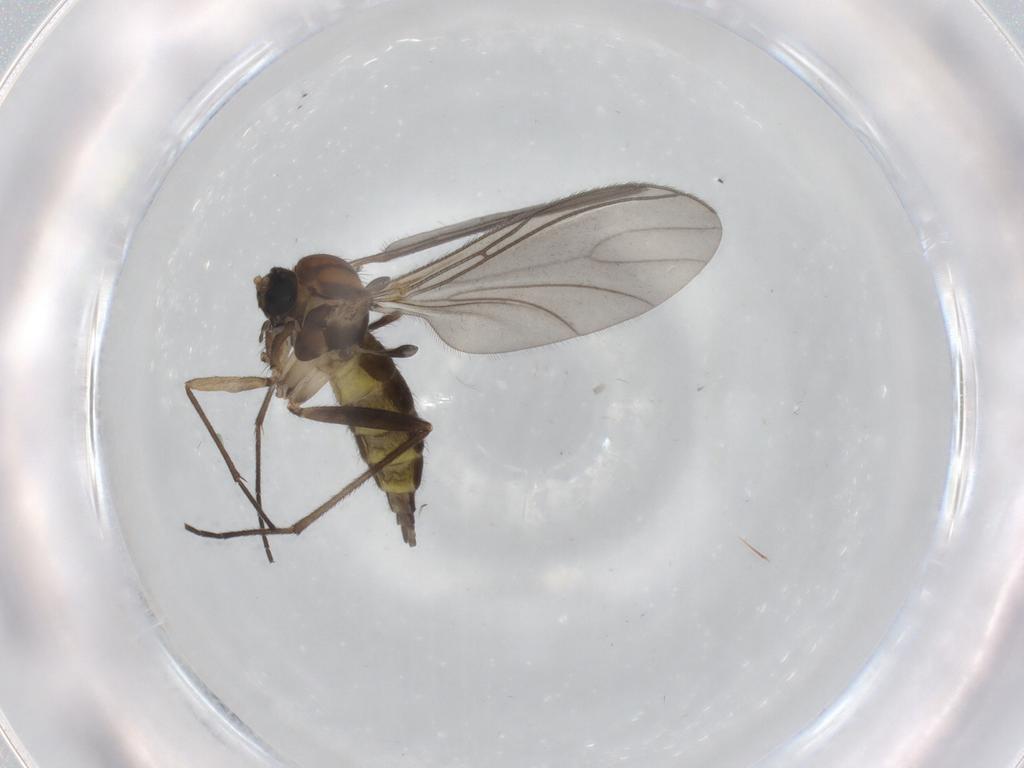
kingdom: Animalia
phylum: Arthropoda
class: Insecta
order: Diptera
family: Sciaridae
